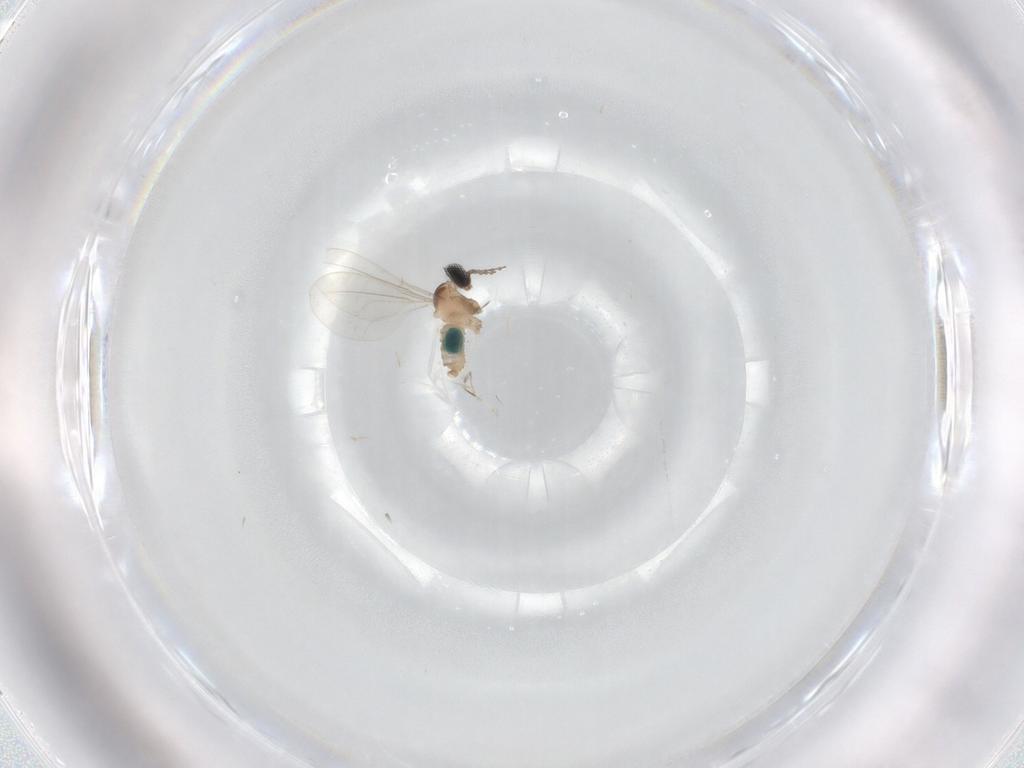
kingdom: Animalia
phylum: Arthropoda
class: Insecta
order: Diptera
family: Cecidomyiidae
